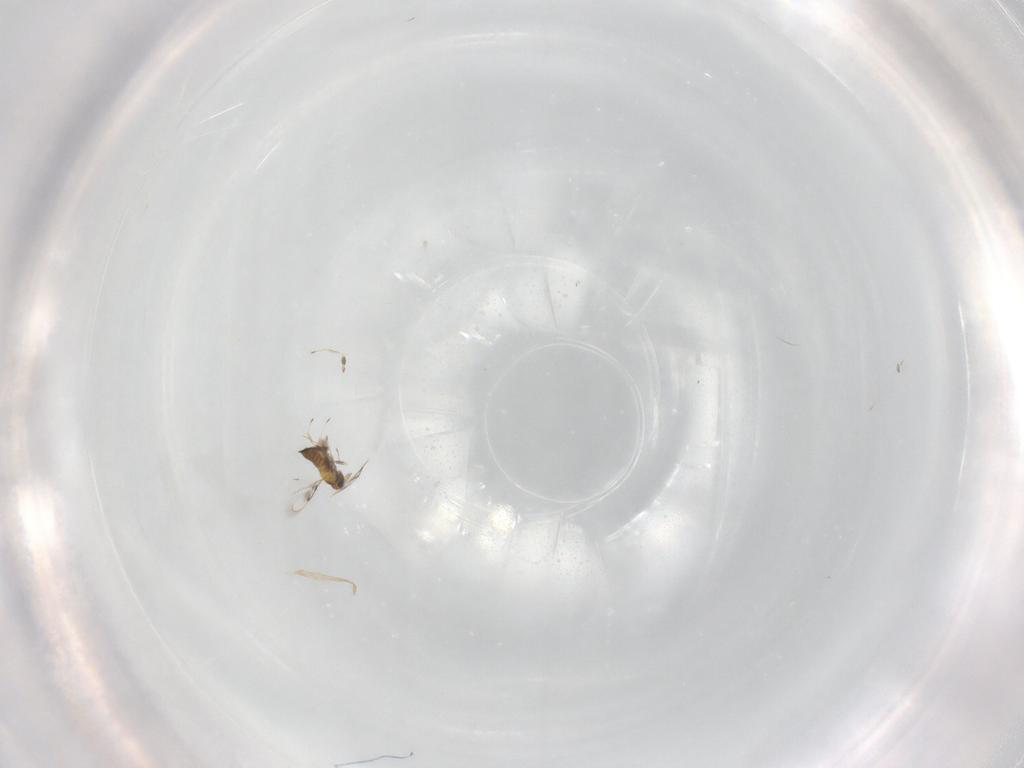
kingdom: Animalia
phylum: Arthropoda
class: Insecta
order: Hymenoptera
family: Trichogrammatidae
